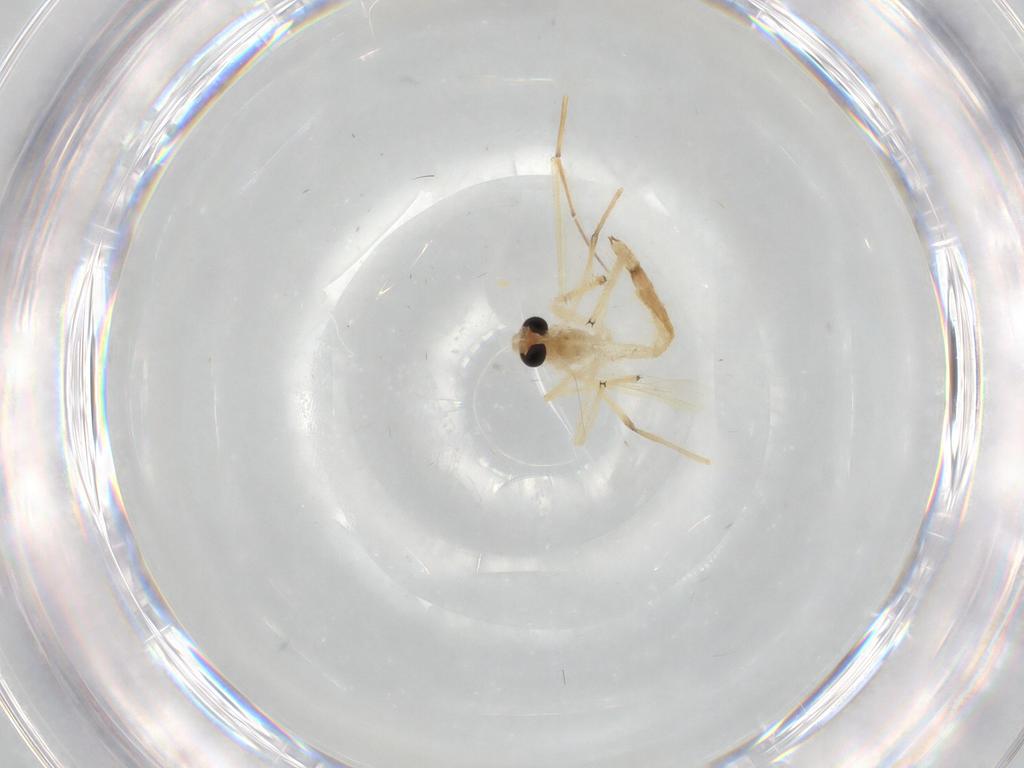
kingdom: Animalia
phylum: Arthropoda
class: Insecta
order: Diptera
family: Chironomidae
